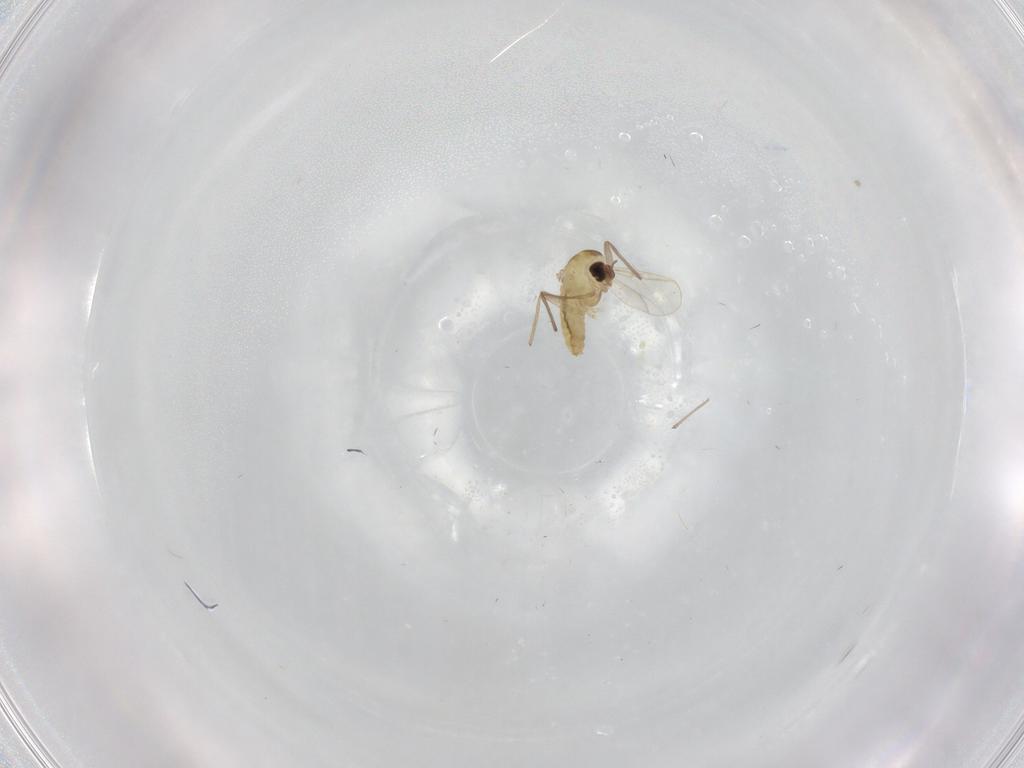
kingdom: Animalia
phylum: Arthropoda
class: Insecta
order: Diptera
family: Chironomidae
